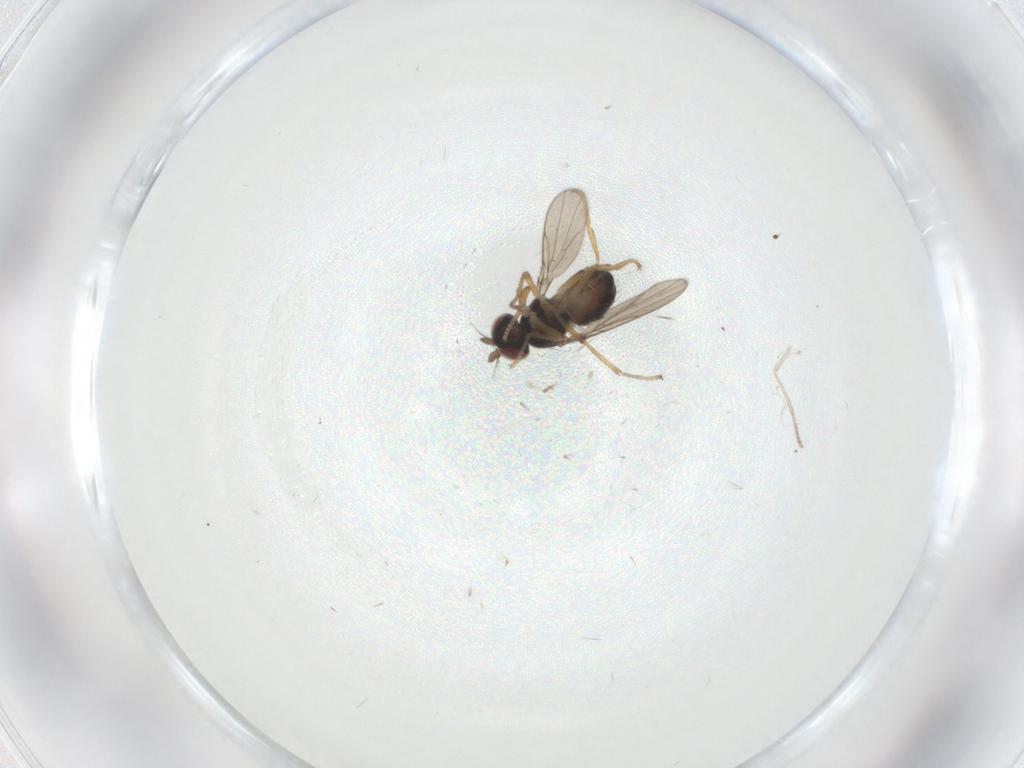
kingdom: Animalia
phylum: Arthropoda
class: Insecta
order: Diptera
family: Ephydridae
